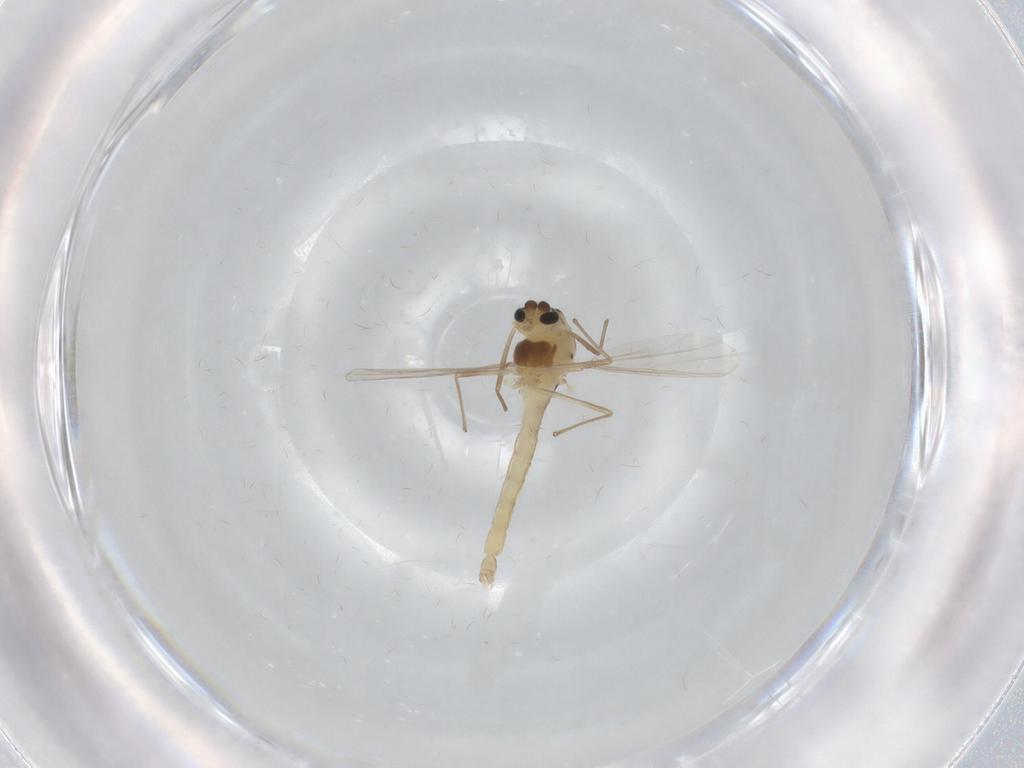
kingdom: Animalia
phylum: Arthropoda
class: Insecta
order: Diptera
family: Chironomidae
